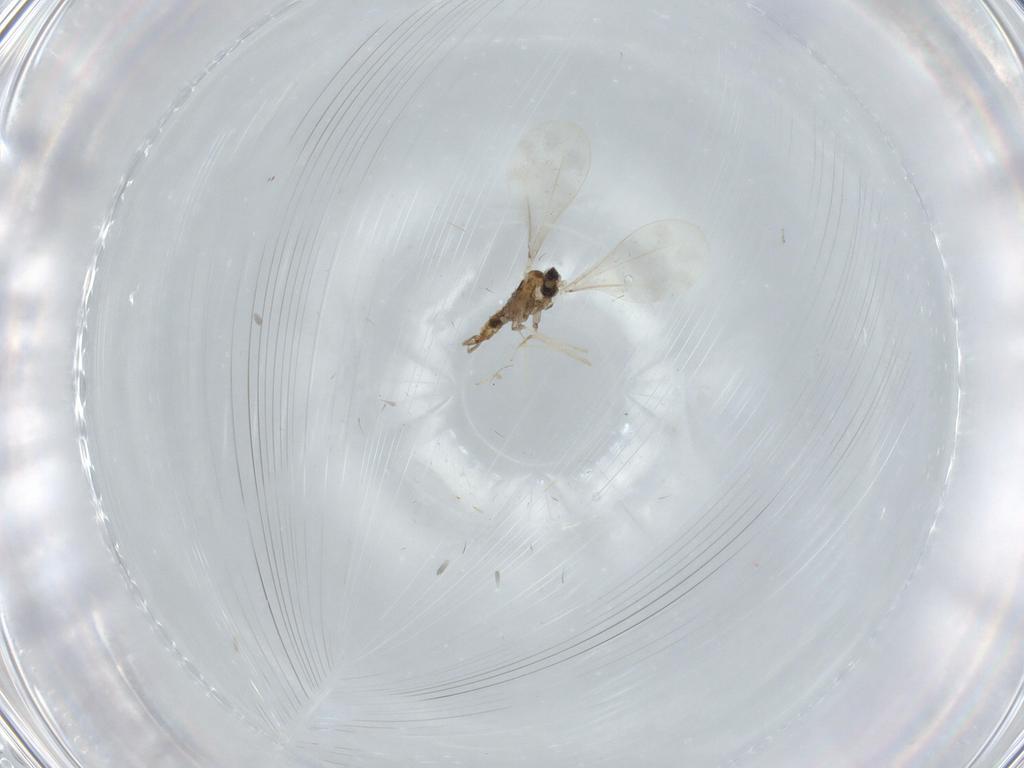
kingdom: Animalia
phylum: Arthropoda
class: Insecta
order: Diptera
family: Cecidomyiidae
